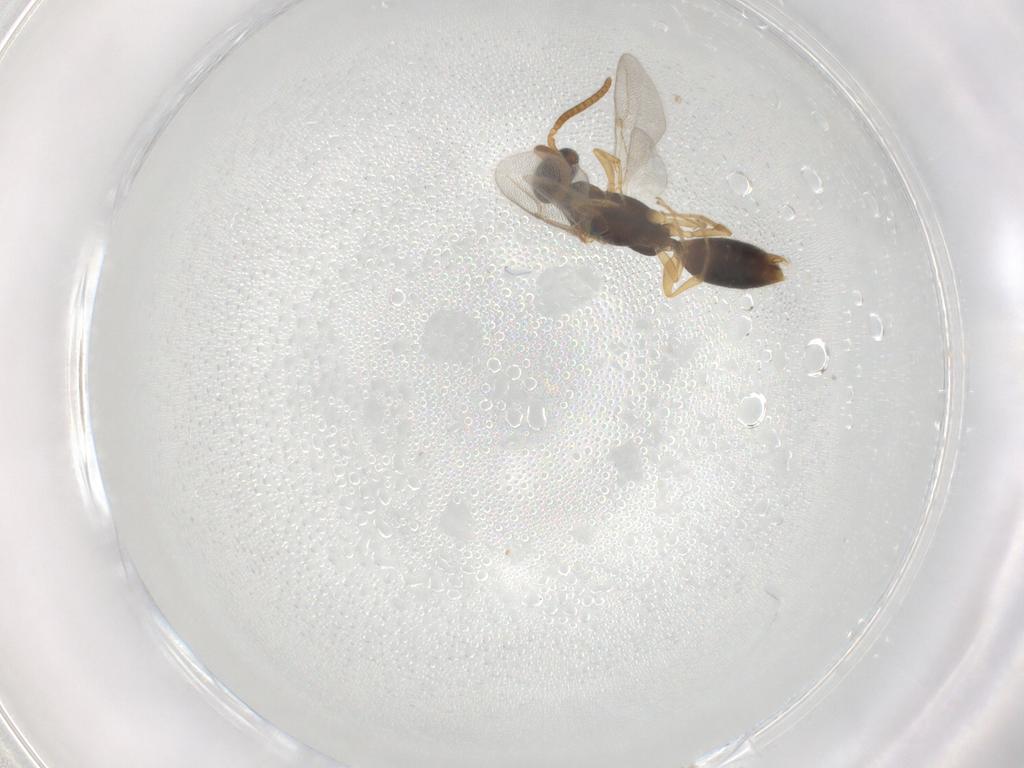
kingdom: Animalia
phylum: Arthropoda
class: Insecta
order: Hymenoptera
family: Bethylidae
